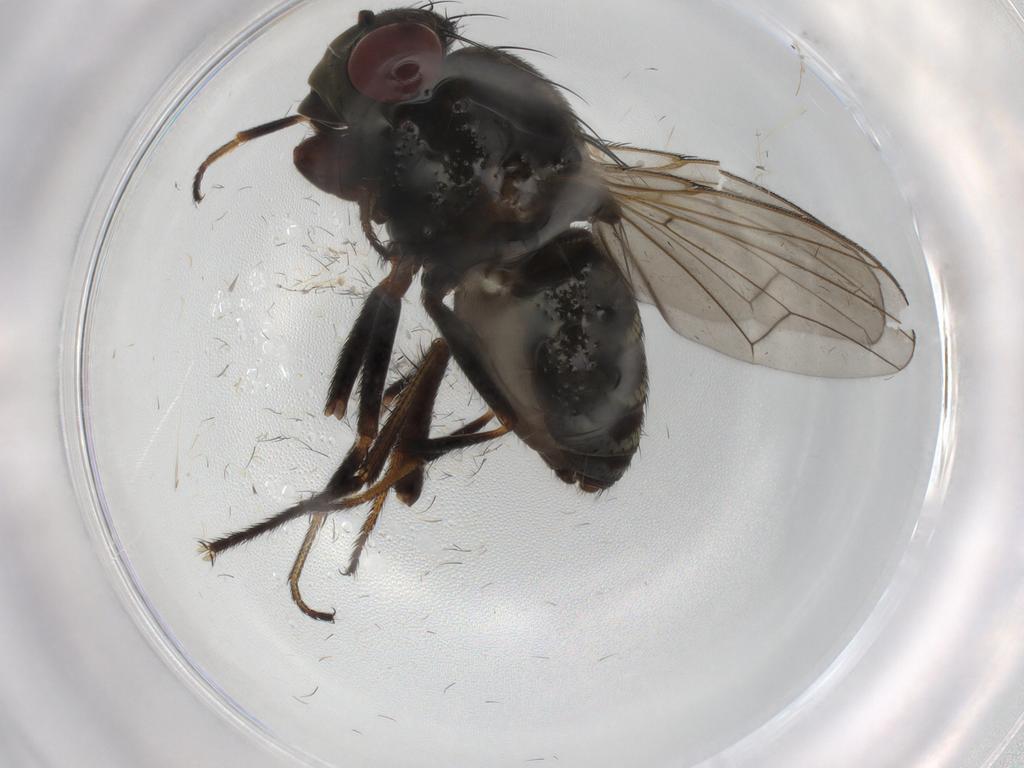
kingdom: Animalia
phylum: Arthropoda
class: Insecta
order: Diptera
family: Ephydridae
